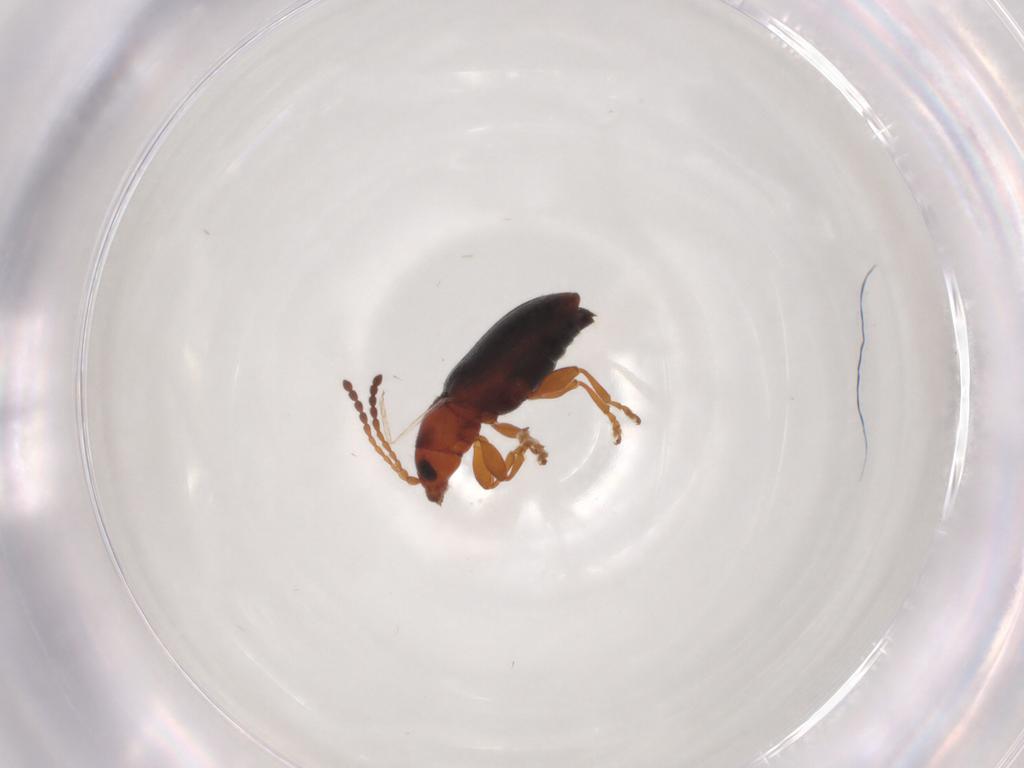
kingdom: Animalia
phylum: Arthropoda
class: Insecta
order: Coleoptera
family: Chrysomelidae
